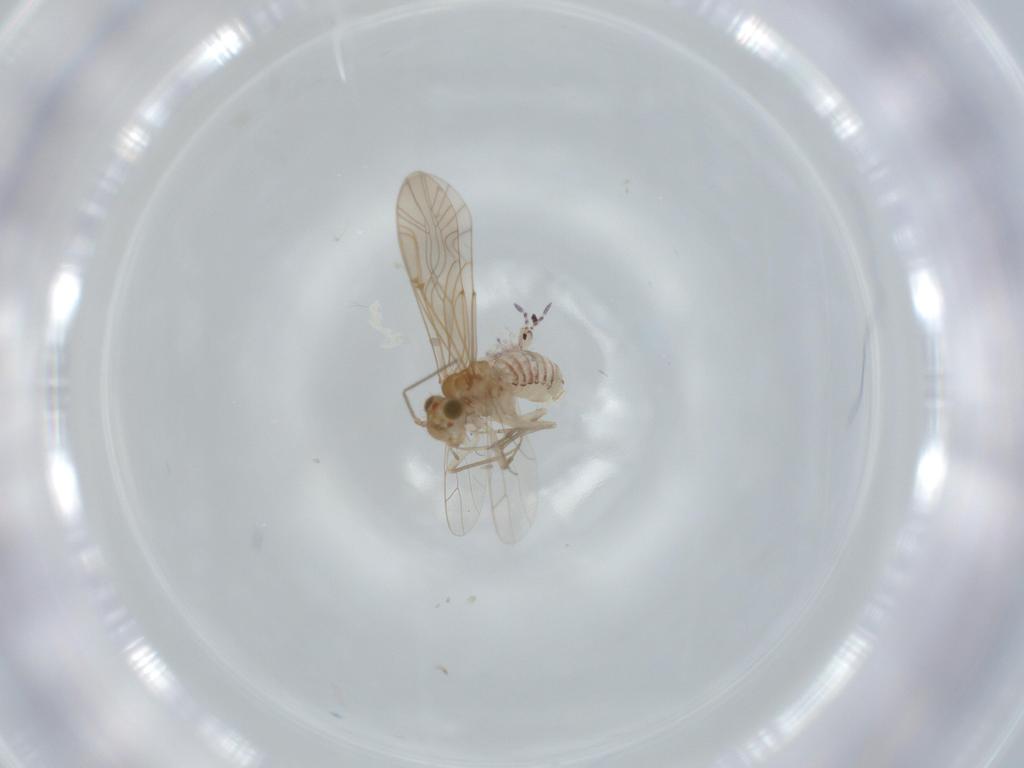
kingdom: Animalia
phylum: Arthropoda
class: Insecta
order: Psocodea
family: Lachesillidae
